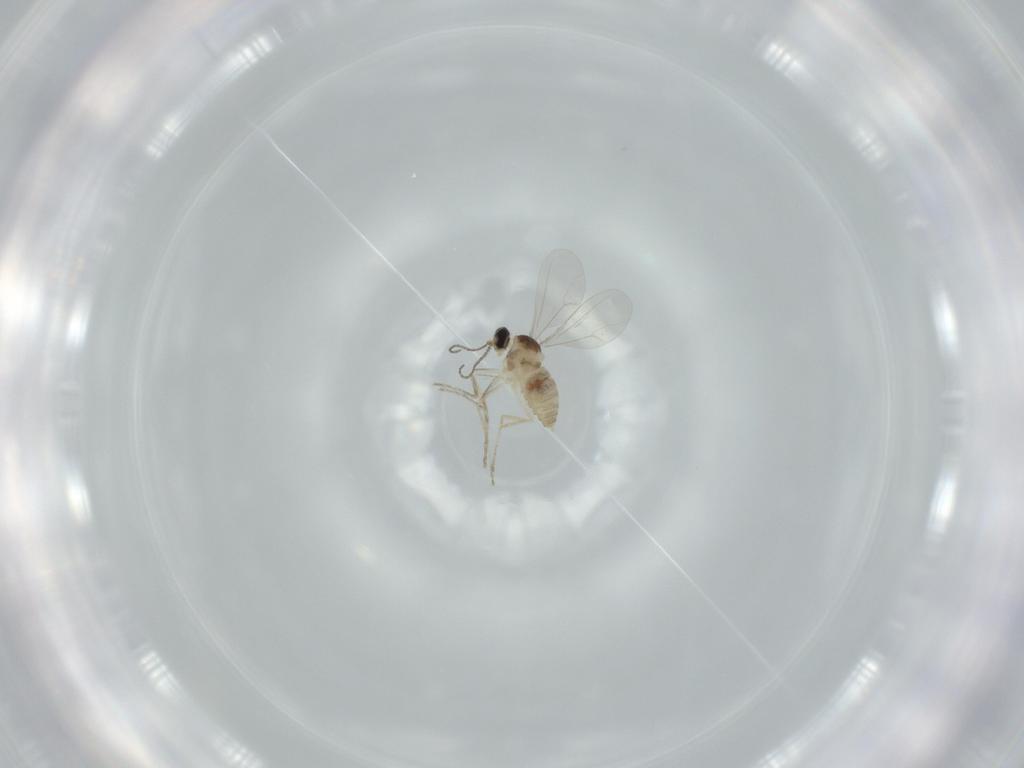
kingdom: Animalia
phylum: Arthropoda
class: Insecta
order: Diptera
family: Cecidomyiidae
